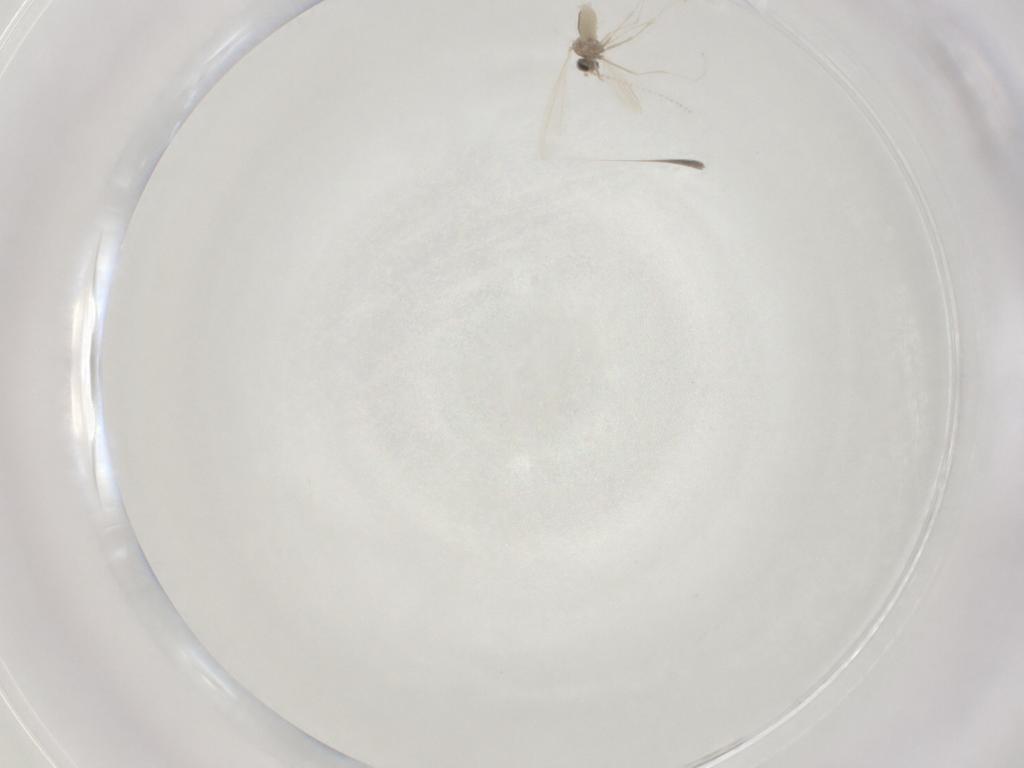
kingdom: Animalia
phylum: Arthropoda
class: Insecta
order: Diptera
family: Cecidomyiidae
